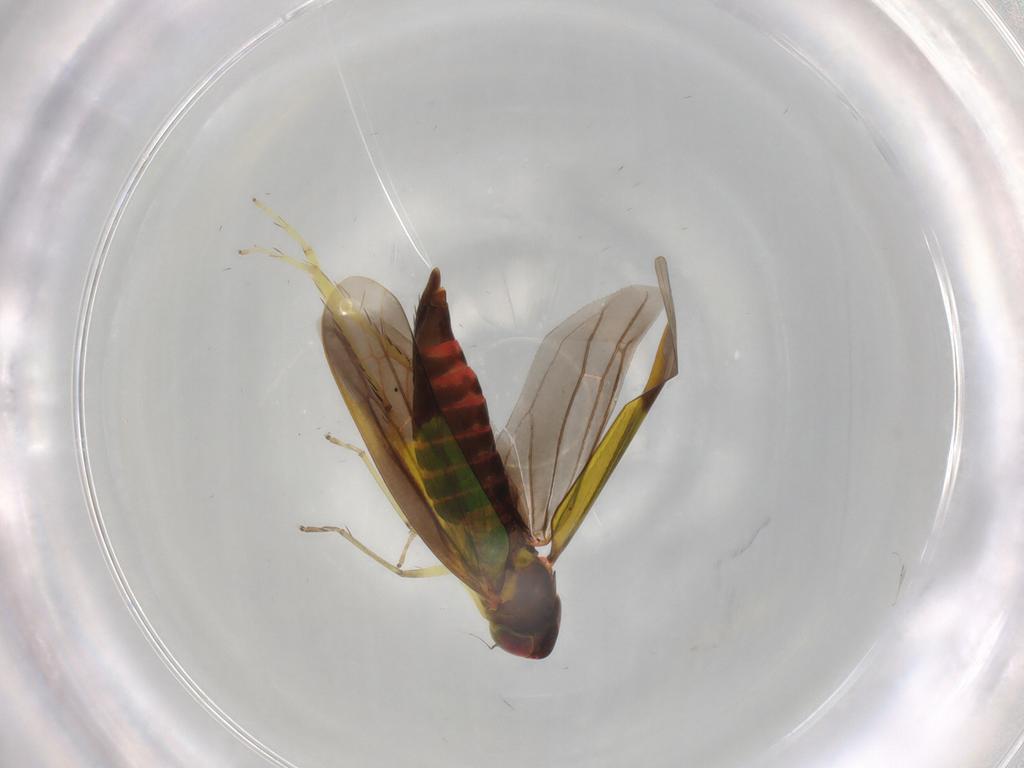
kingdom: Animalia
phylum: Arthropoda
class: Insecta
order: Hemiptera
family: Cicadellidae
